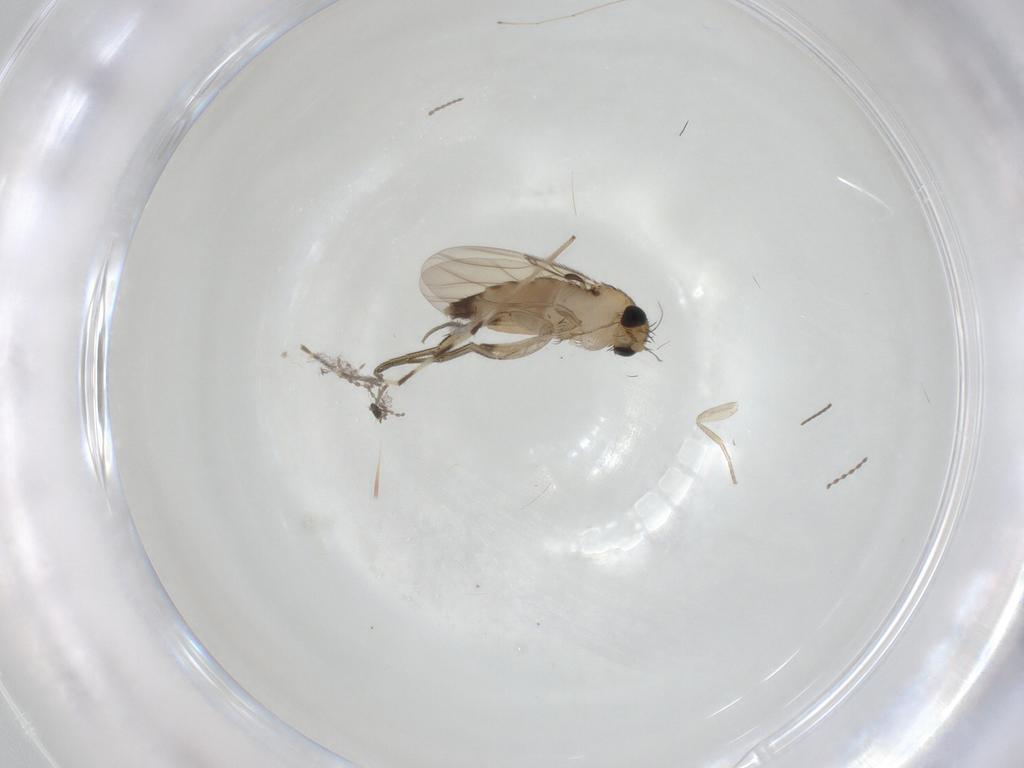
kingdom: Animalia
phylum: Arthropoda
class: Insecta
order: Diptera
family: Phoridae
